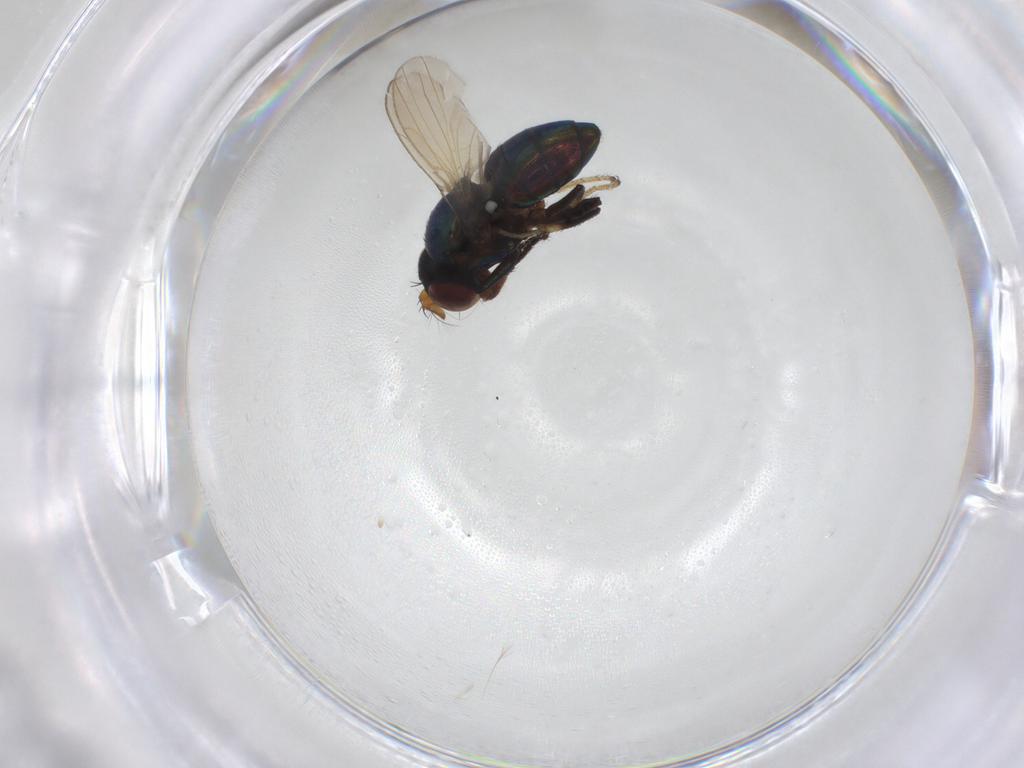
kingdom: Animalia
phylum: Arthropoda
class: Insecta
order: Diptera
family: Ephydridae
